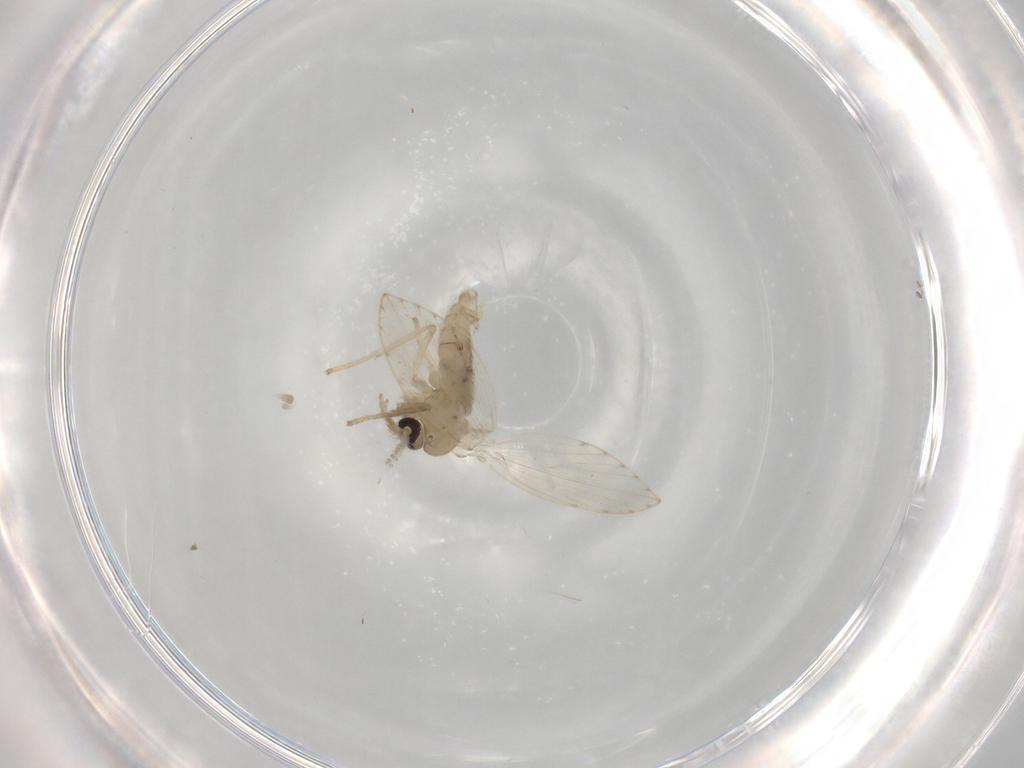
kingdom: Animalia
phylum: Arthropoda
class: Insecta
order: Diptera
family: Psychodidae
